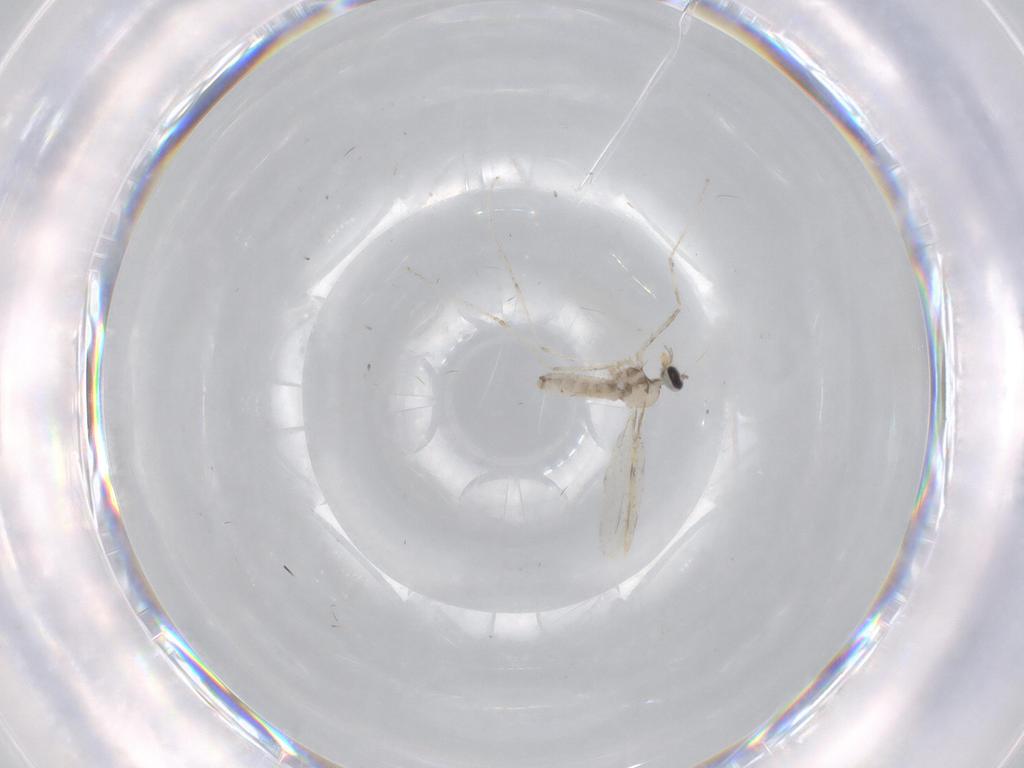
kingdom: Animalia
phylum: Arthropoda
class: Insecta
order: Diptera
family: Cecidomyiidae
